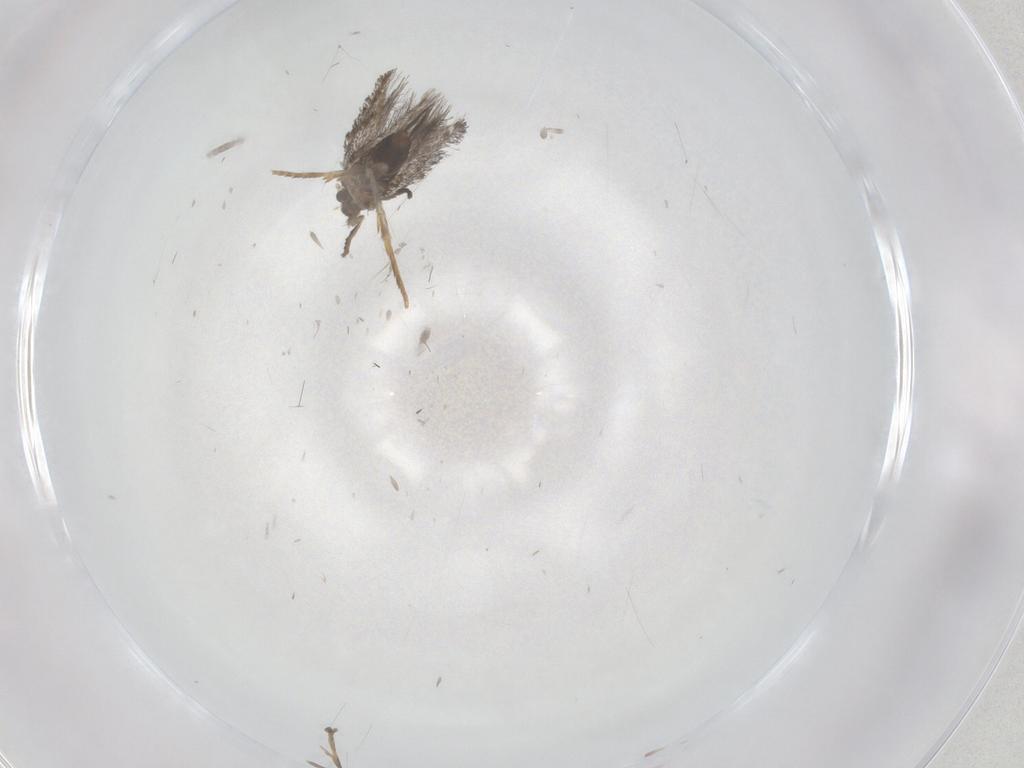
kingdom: Animalia
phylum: Arthropoda
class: Insecta
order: Lepidoptera
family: Nepticulidae
